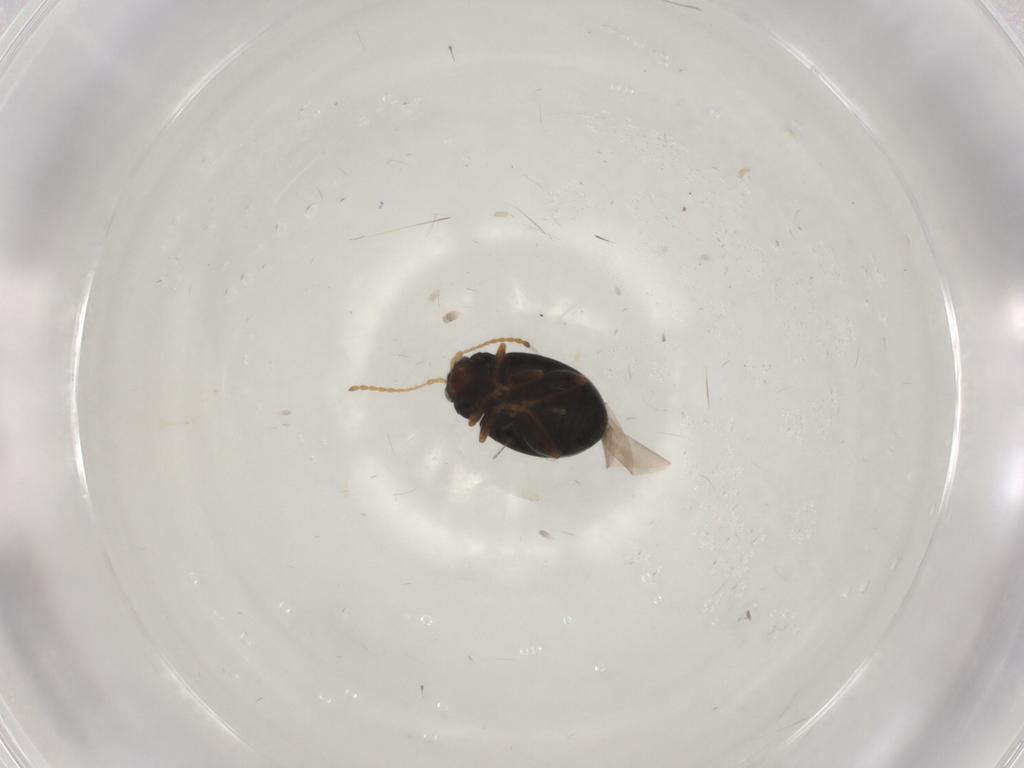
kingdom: Animalia
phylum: Arthropoda
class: Insecta
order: Coleoptera
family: Chrysomelidae
